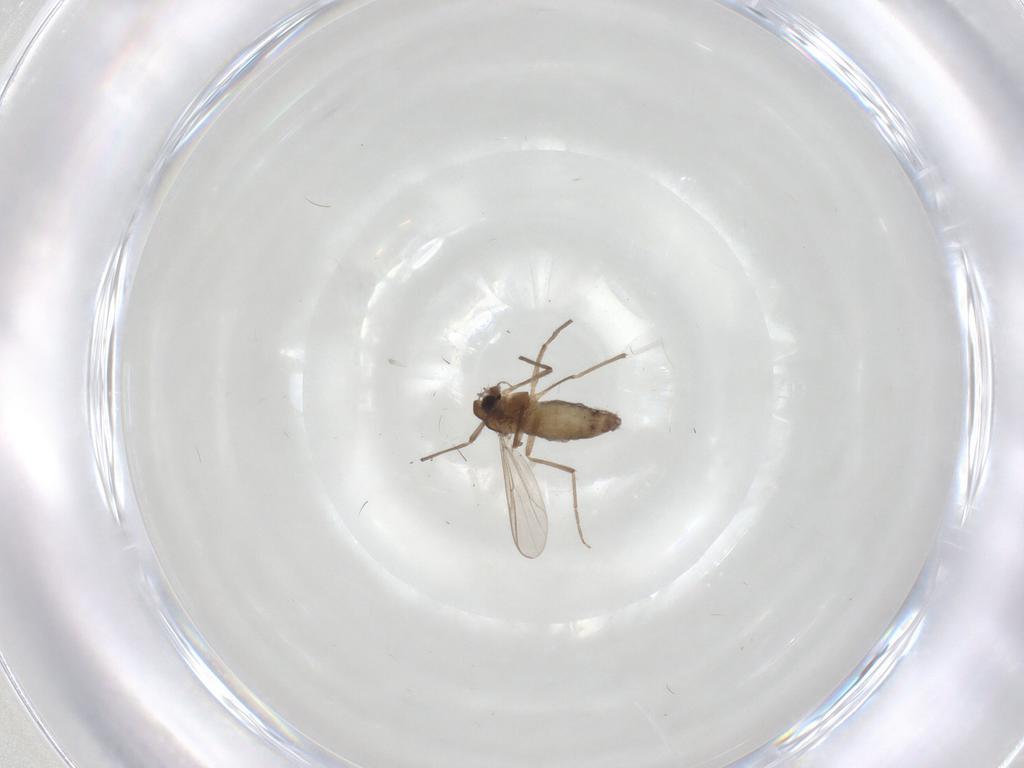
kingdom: Animalia
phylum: Arthropoda
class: Insecta
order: Diptera
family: Chironomidae
